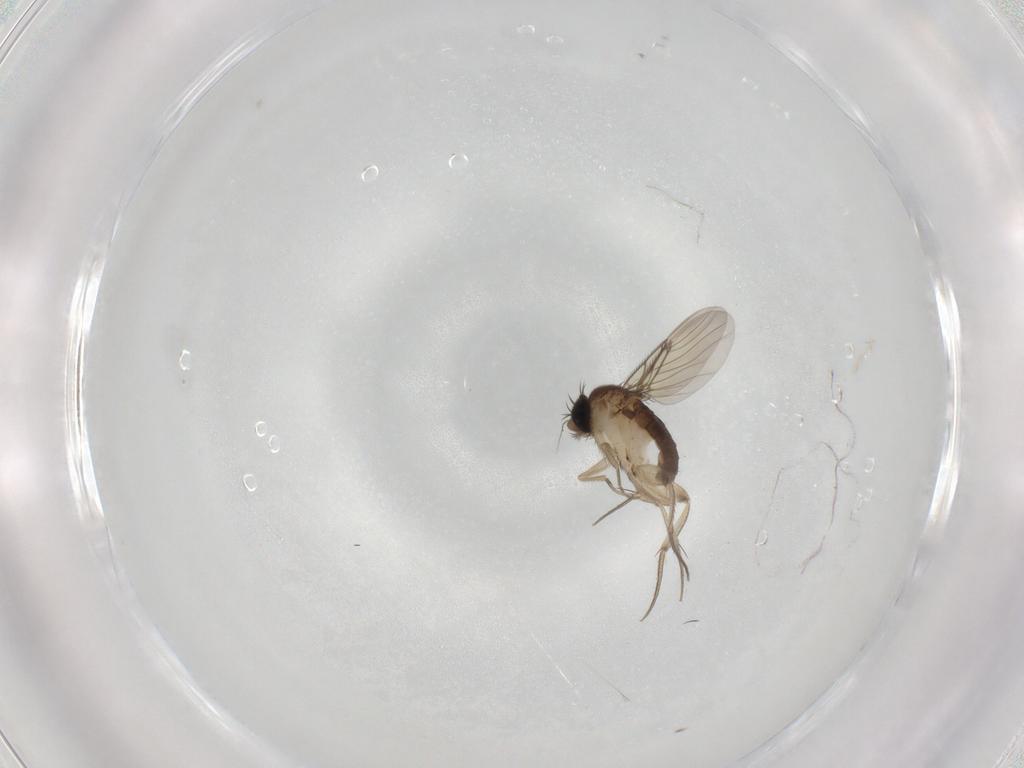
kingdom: Animalia
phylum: Arthropoda
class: Insecta
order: Diptera
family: Phoridae
